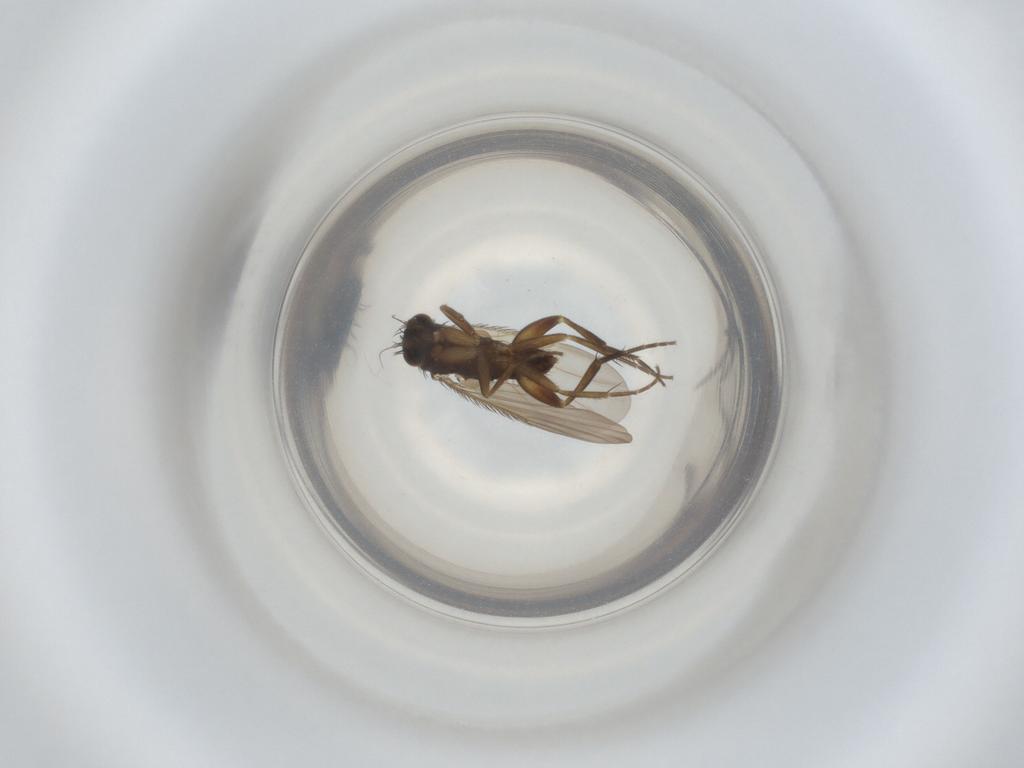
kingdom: Animalia
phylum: Arthropoda
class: Insecta
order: Diptera
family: Phoridae
